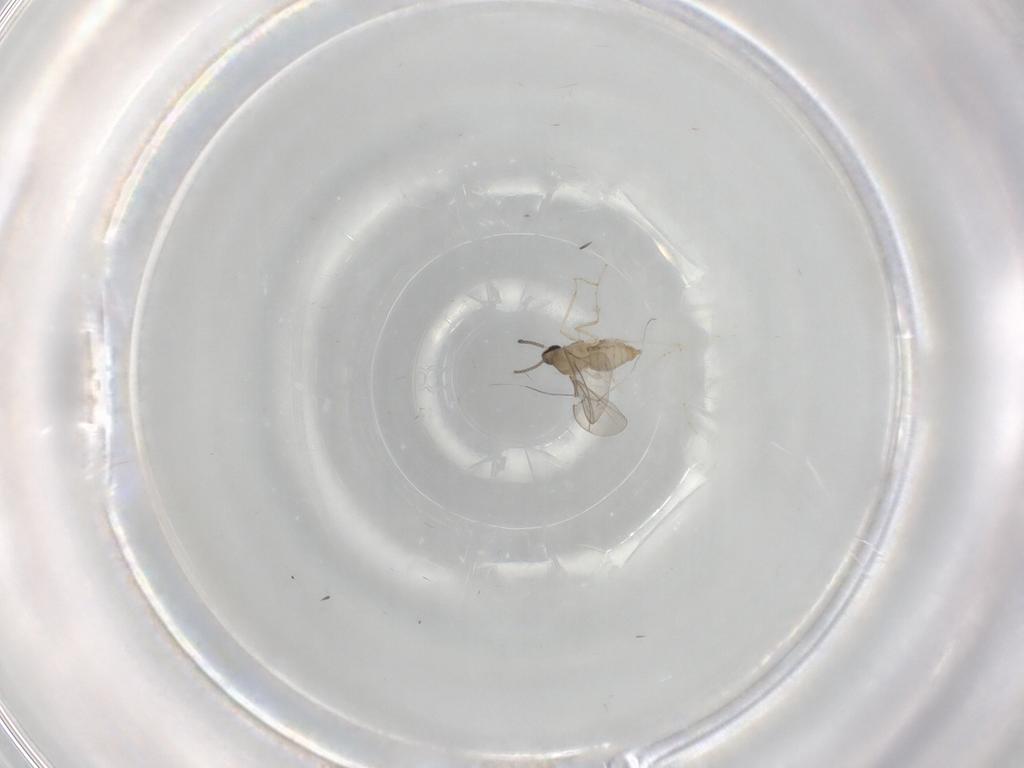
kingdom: Animalia
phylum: Arthropoda
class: Insecta
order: Diptera
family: Cecidomyiidae
